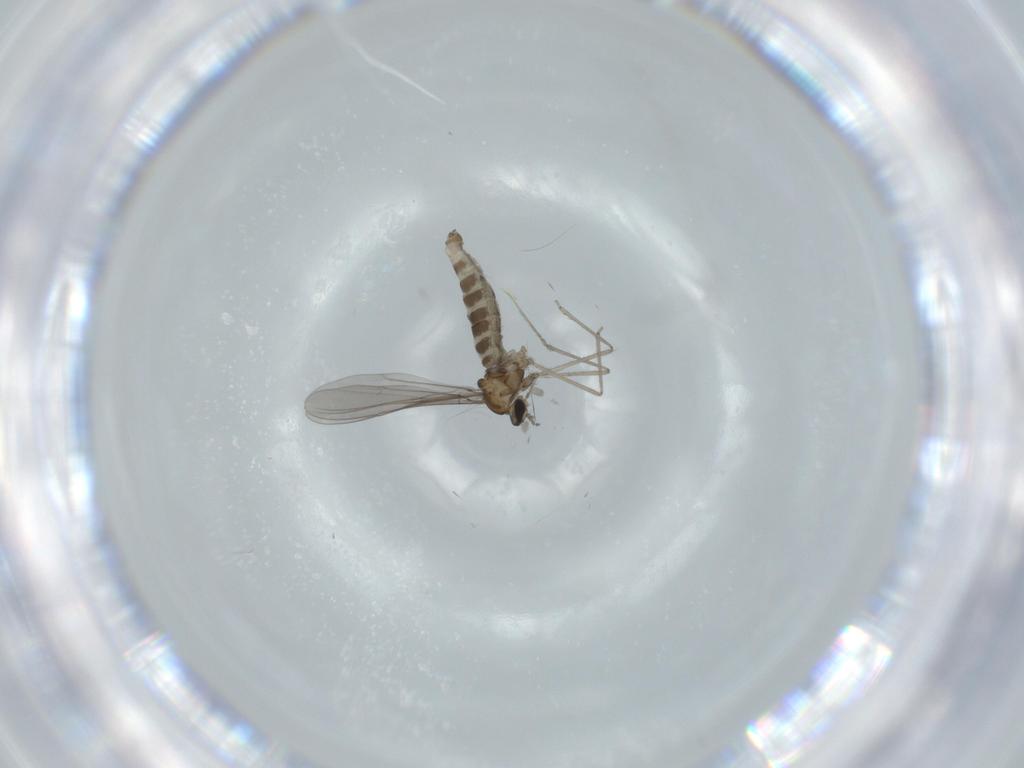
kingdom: Animalia
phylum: Arthropoda
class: Insecta
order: Diptera
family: Cecidomyiidae
